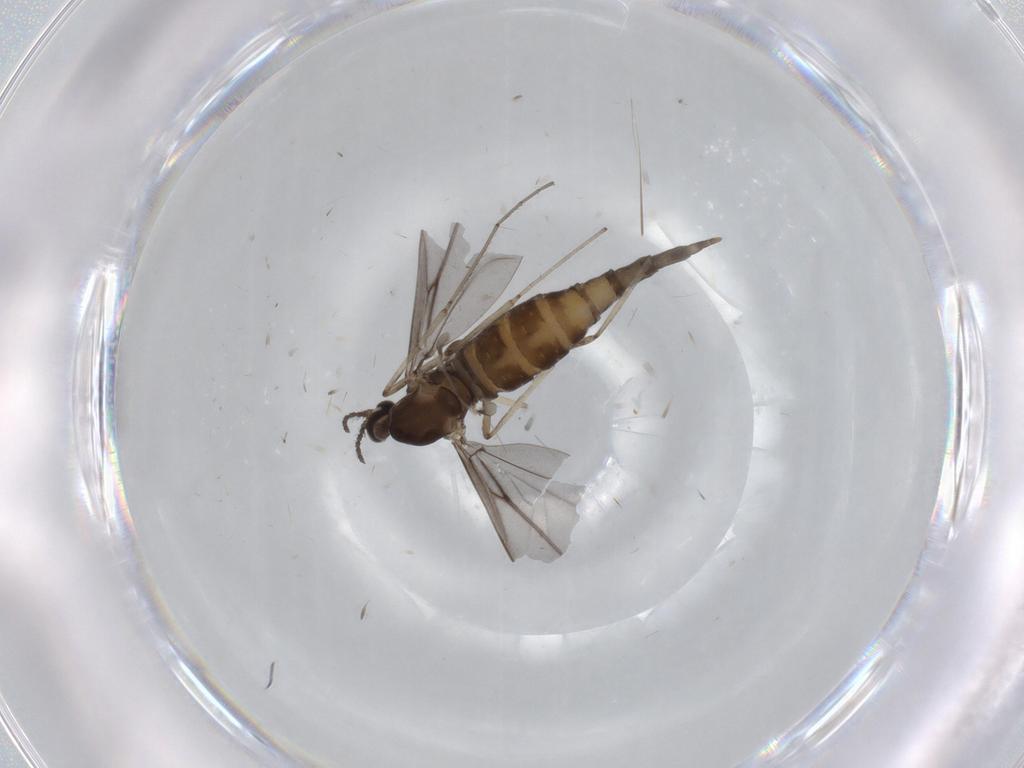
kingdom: Animalia
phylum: Arthropoda
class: Insecta
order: Diptera
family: Cecidomyiidae
